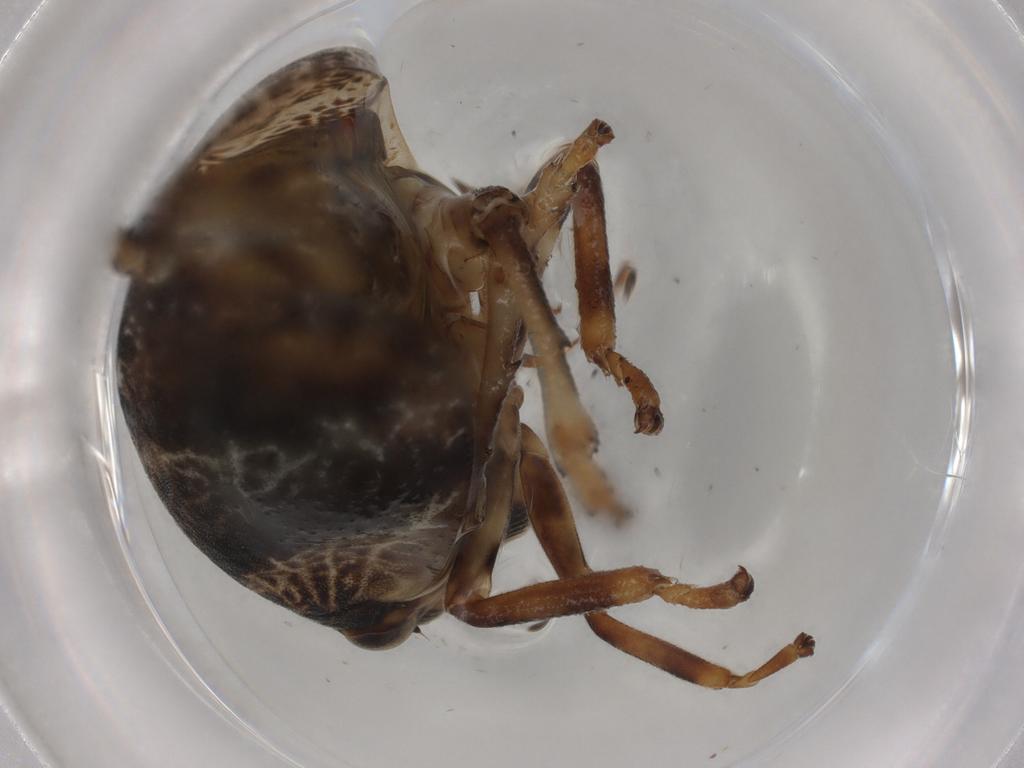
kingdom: Animalia
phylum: Arthropoda
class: Insecta
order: Hemiptera
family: Aphrophoridae
